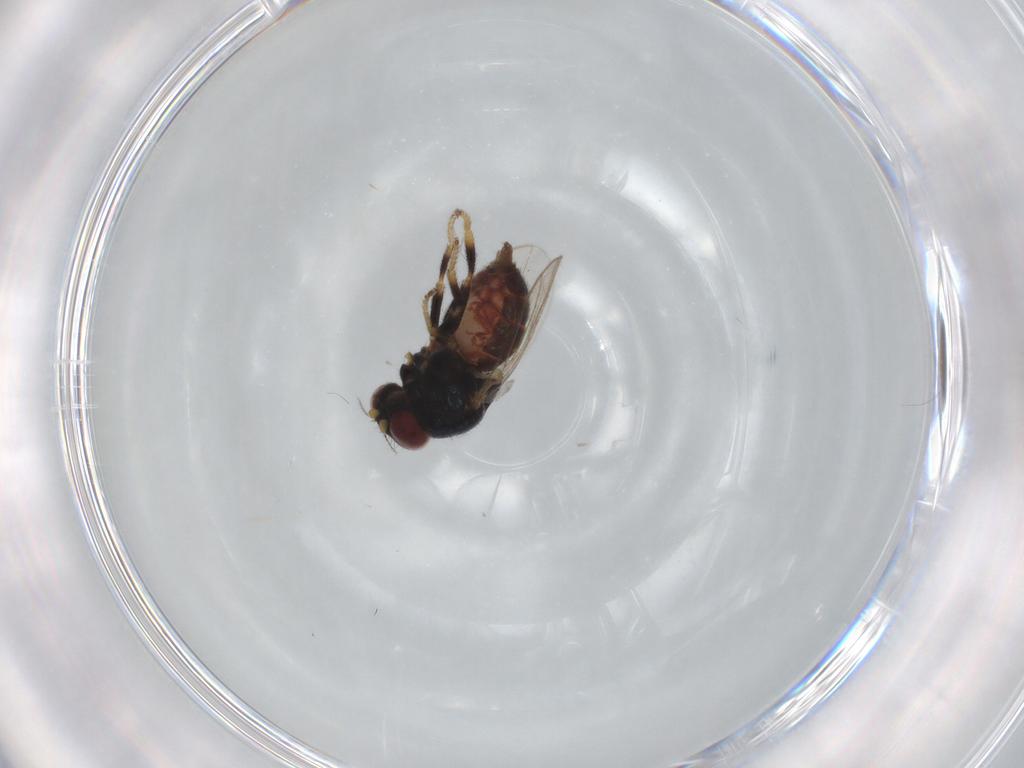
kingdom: Animalia
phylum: Arthropoda
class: Insecta
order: Diptera
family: Chloropidae
